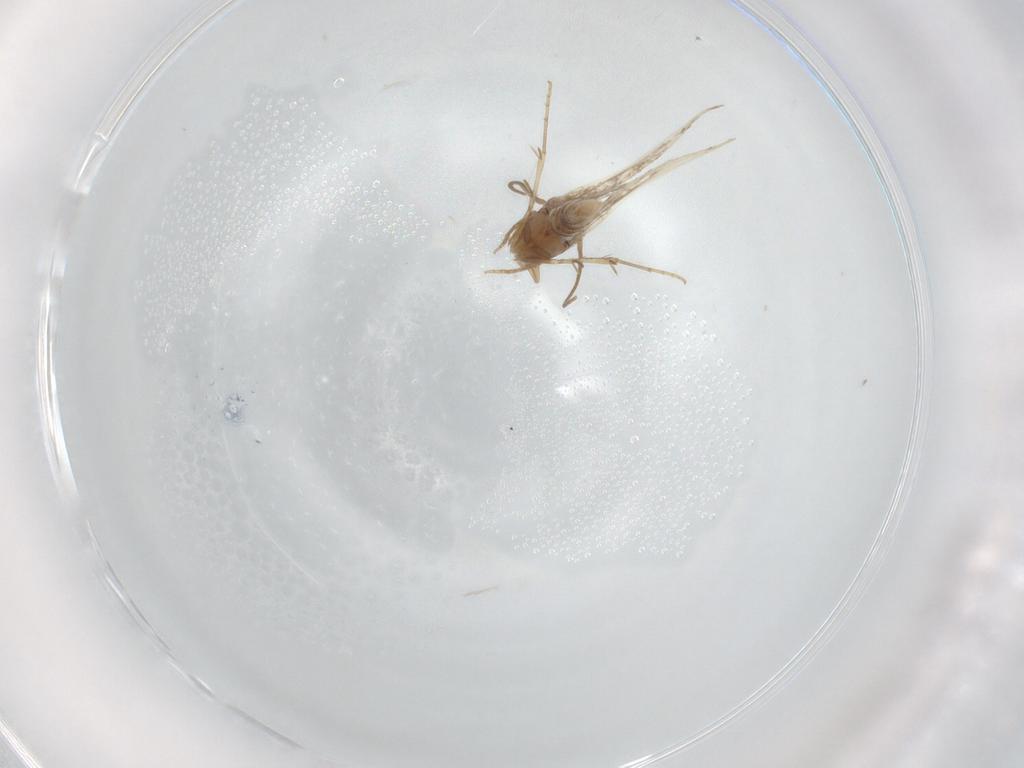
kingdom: Animalia
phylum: Arthropoda
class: Insecta
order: Lepidoptera
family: Elachistidae
